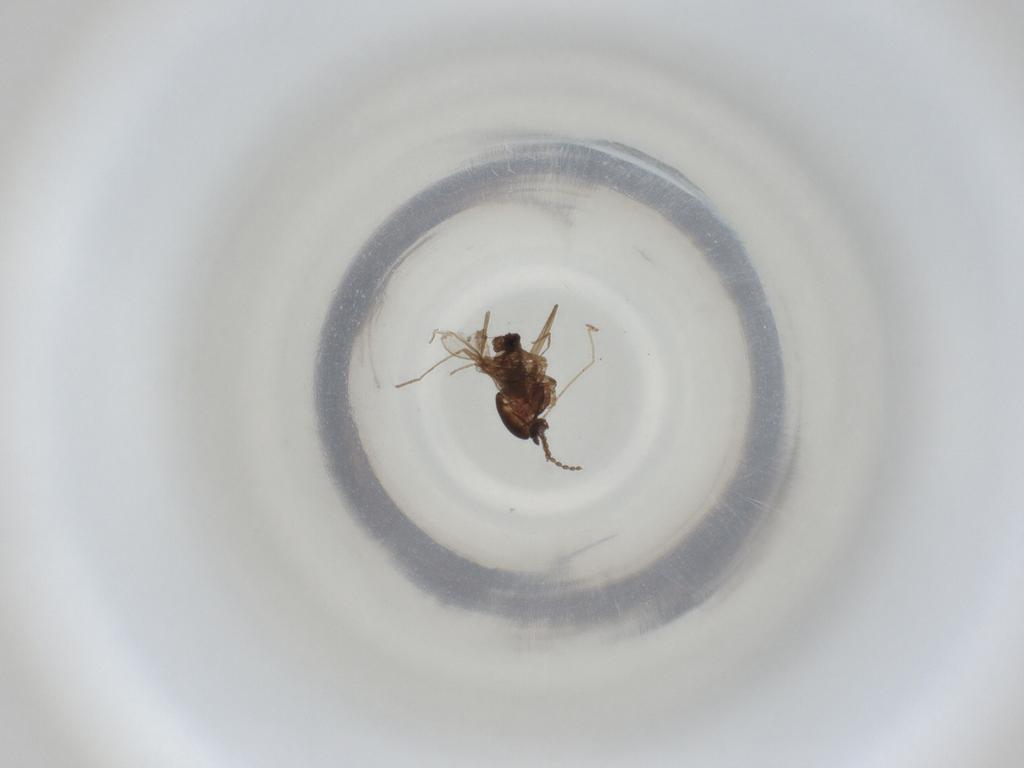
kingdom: Animalia
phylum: Arthropoda
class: Insecta
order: Diptera
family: Cecidomyiidae
